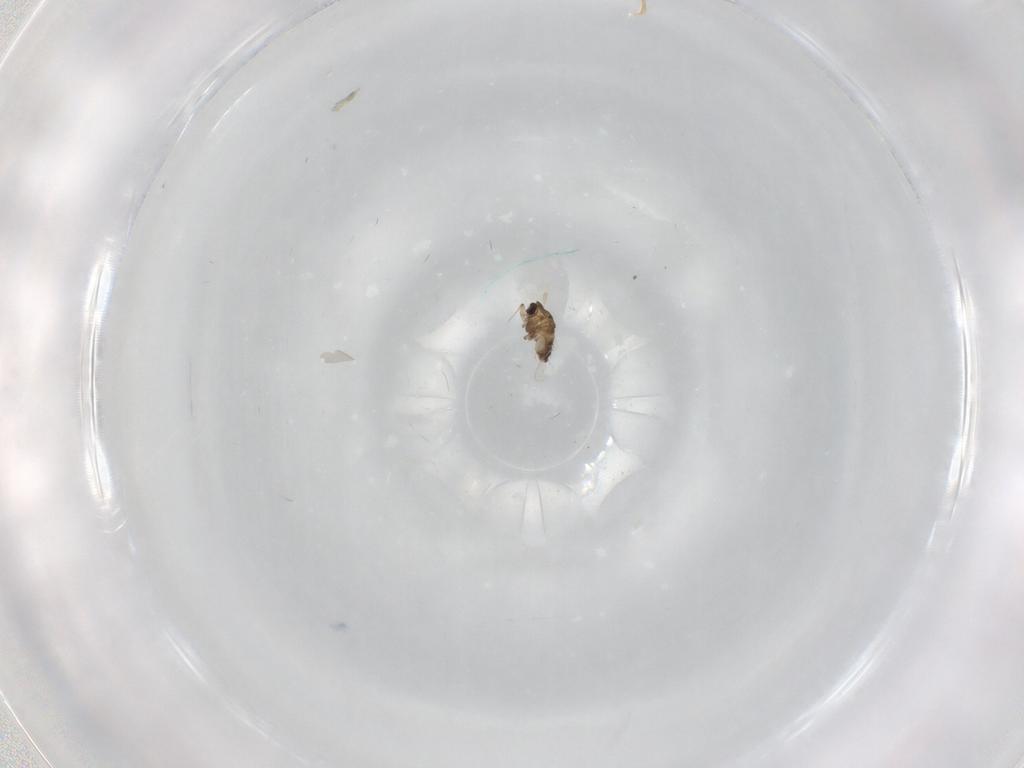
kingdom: Animalia
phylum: Arthropoda
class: Insecta
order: Diptera
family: Chironomidae
